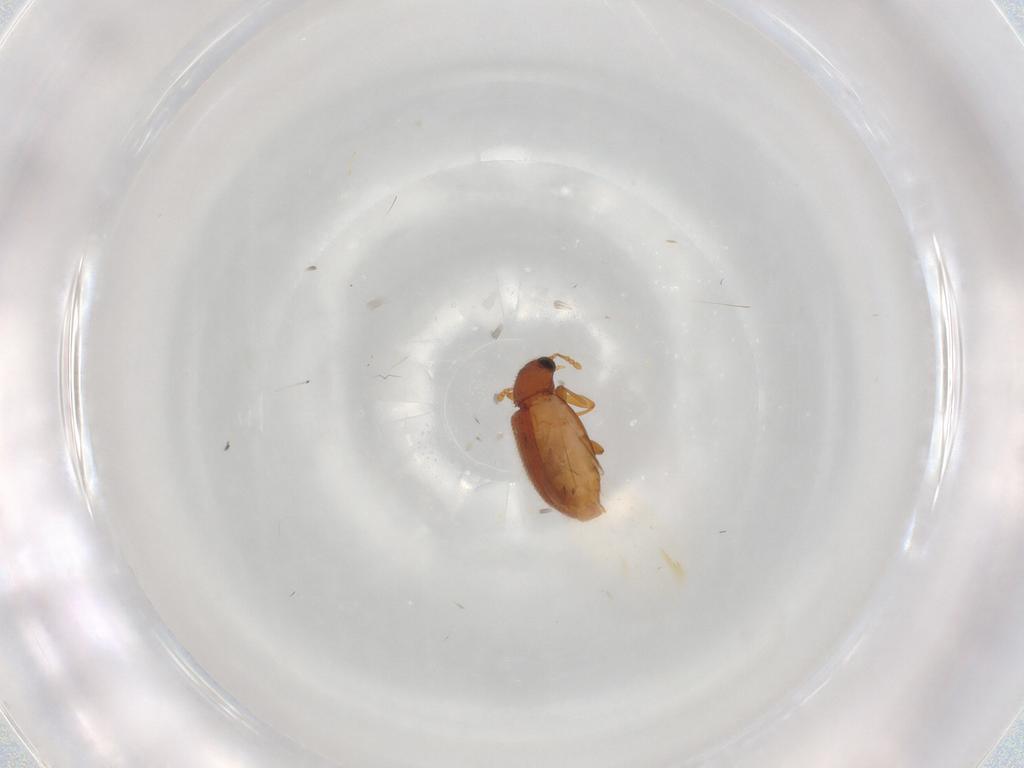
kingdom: Animalia
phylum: Arthropoda
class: Insecta
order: Coleoptera
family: Latridiidae
